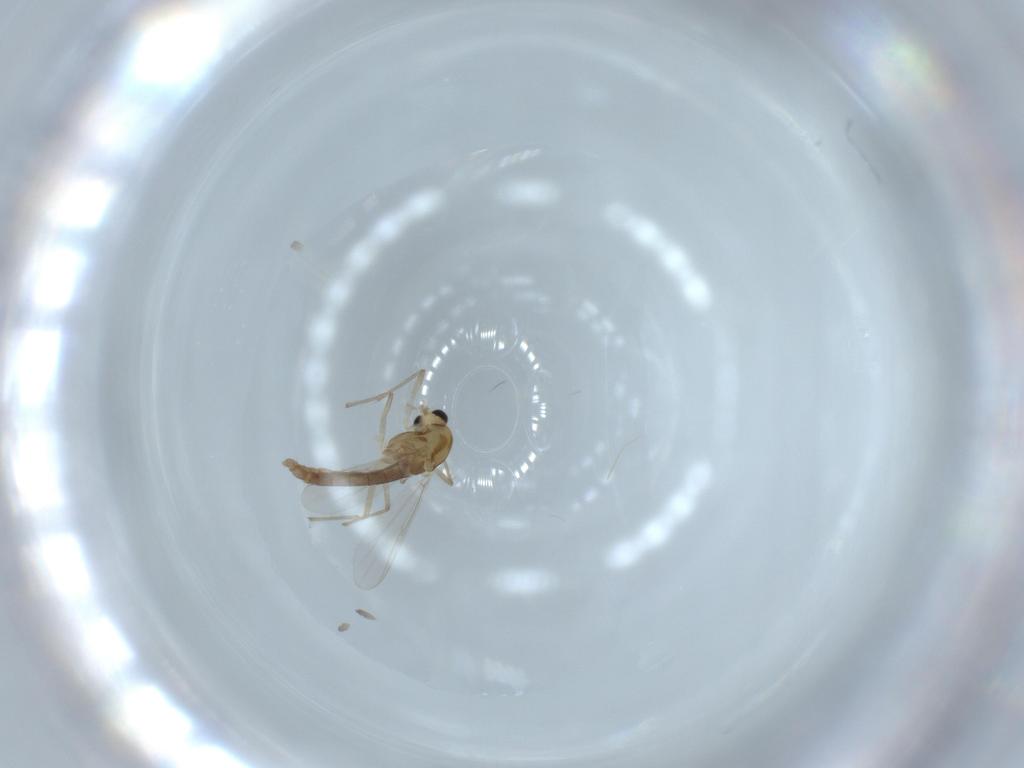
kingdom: Animalia
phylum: Arthropoda
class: Insecta
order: Diptera
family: Chironomidae
